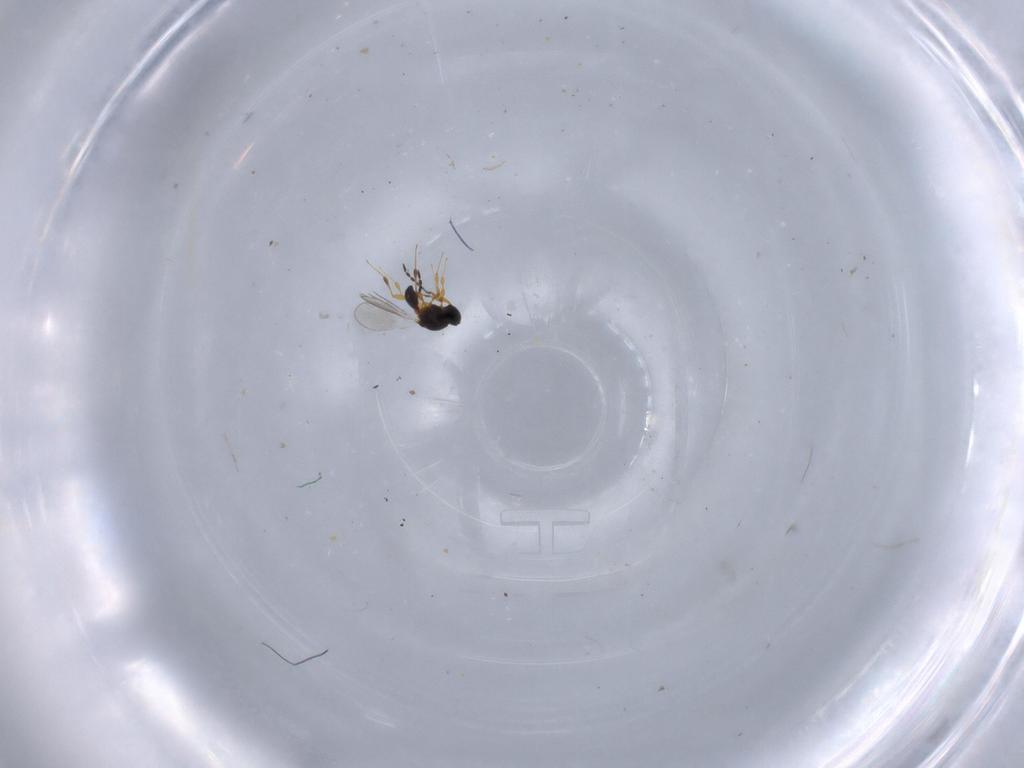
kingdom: Animalia
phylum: Arthropoda
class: Insecta
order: Hymenoptera
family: Platygastridae
